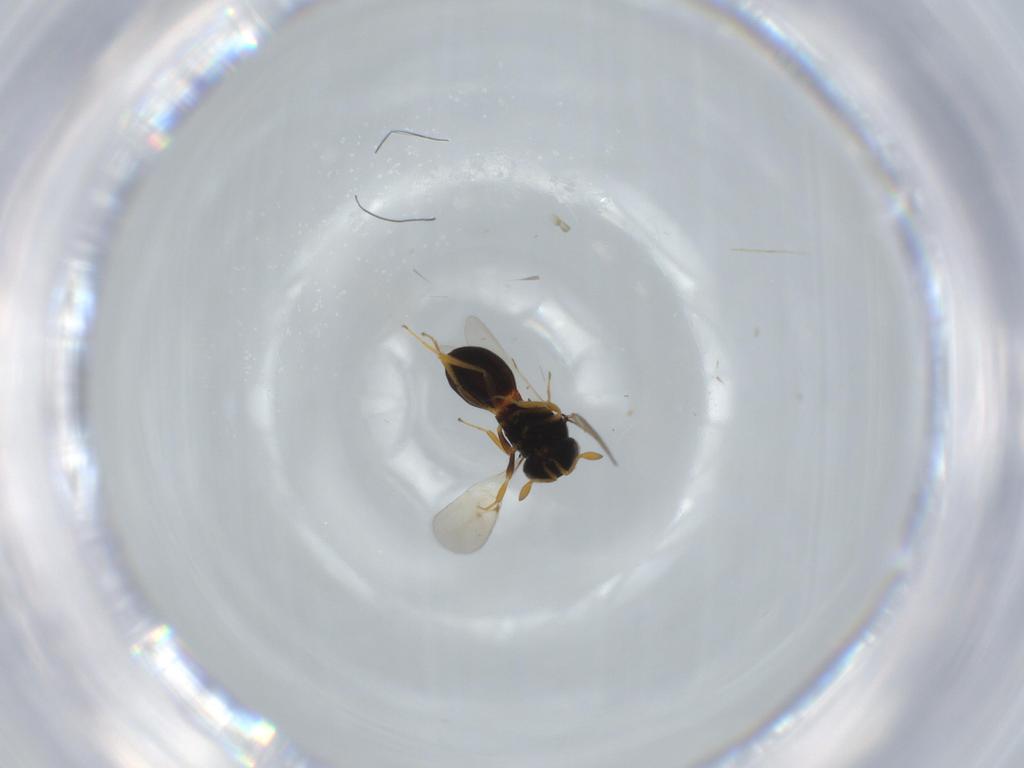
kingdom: Animalia
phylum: Arthropoda
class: Insecta
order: Hymenoptera
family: Scelionidae
